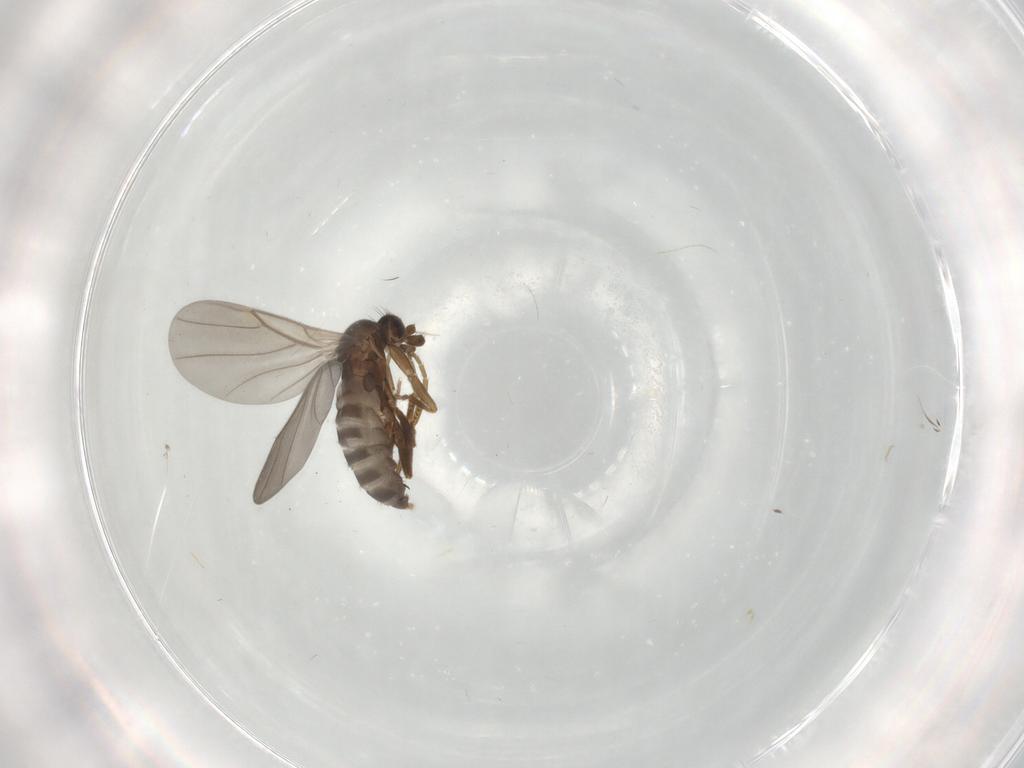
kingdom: Animalia
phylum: Arthropoda
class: Insecta
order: Diptera
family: Phoridae
